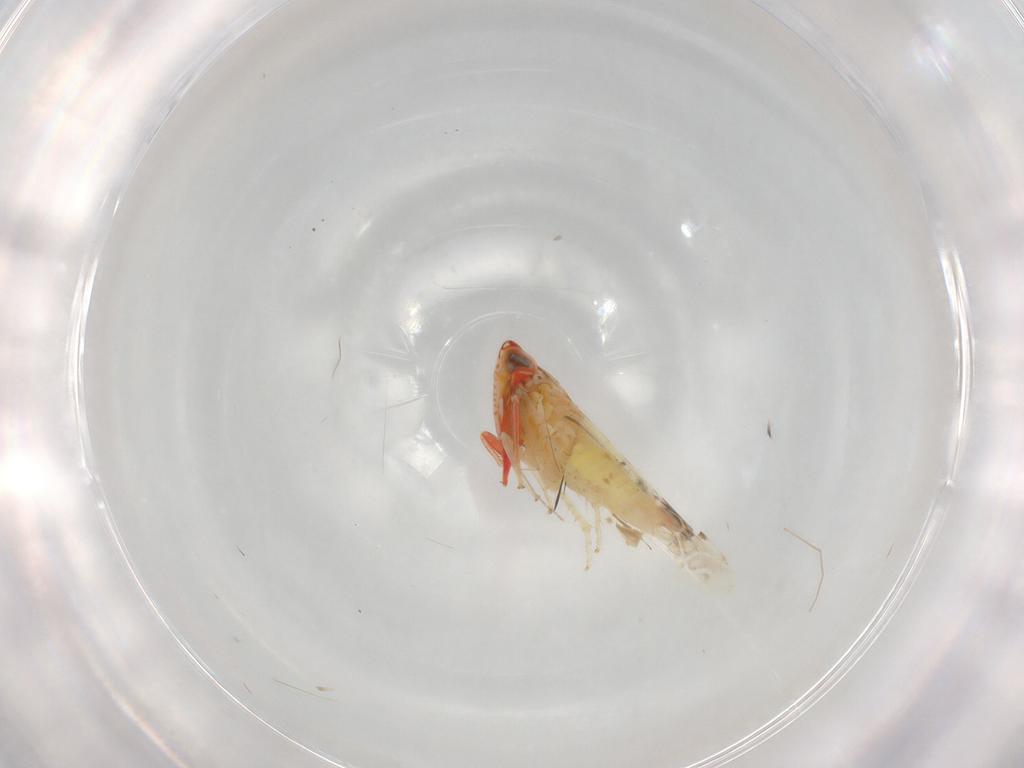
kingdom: Animalia
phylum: Arthropoda
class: Insecta
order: Hemiptera
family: Cicadellidae
